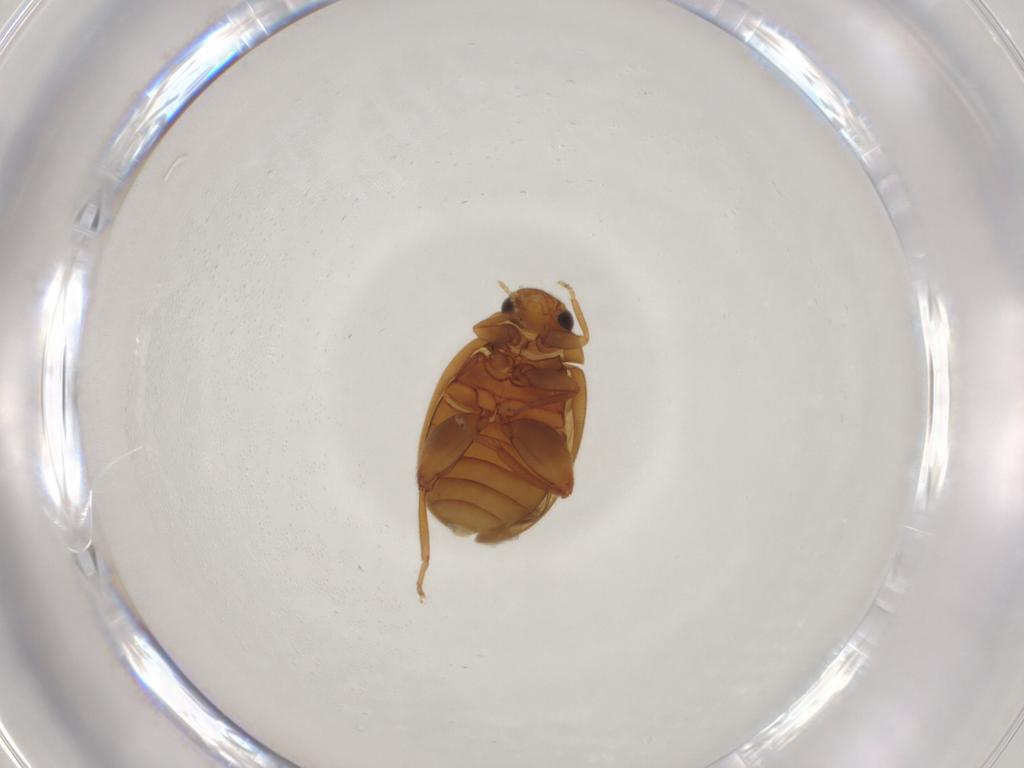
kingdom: Animalia
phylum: Arthropoda
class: Insecta
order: Coleoptera
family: Scirtidae
